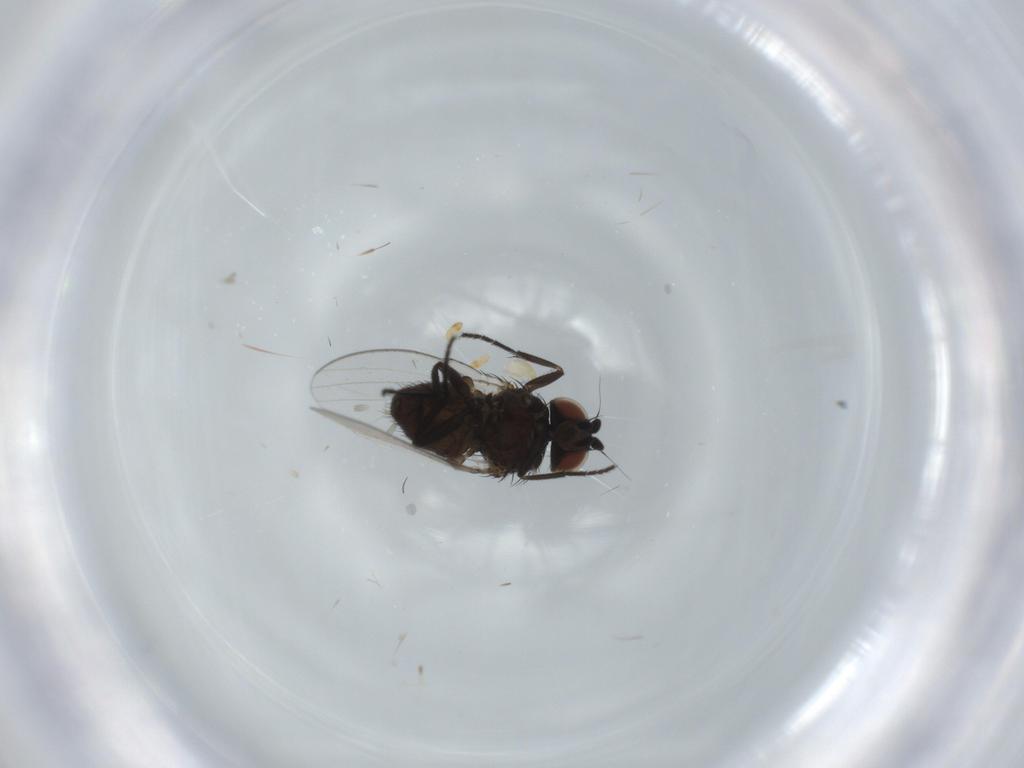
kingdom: Animalia
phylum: Arthropoda
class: Insecta
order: Diptera
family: Milichiidae
